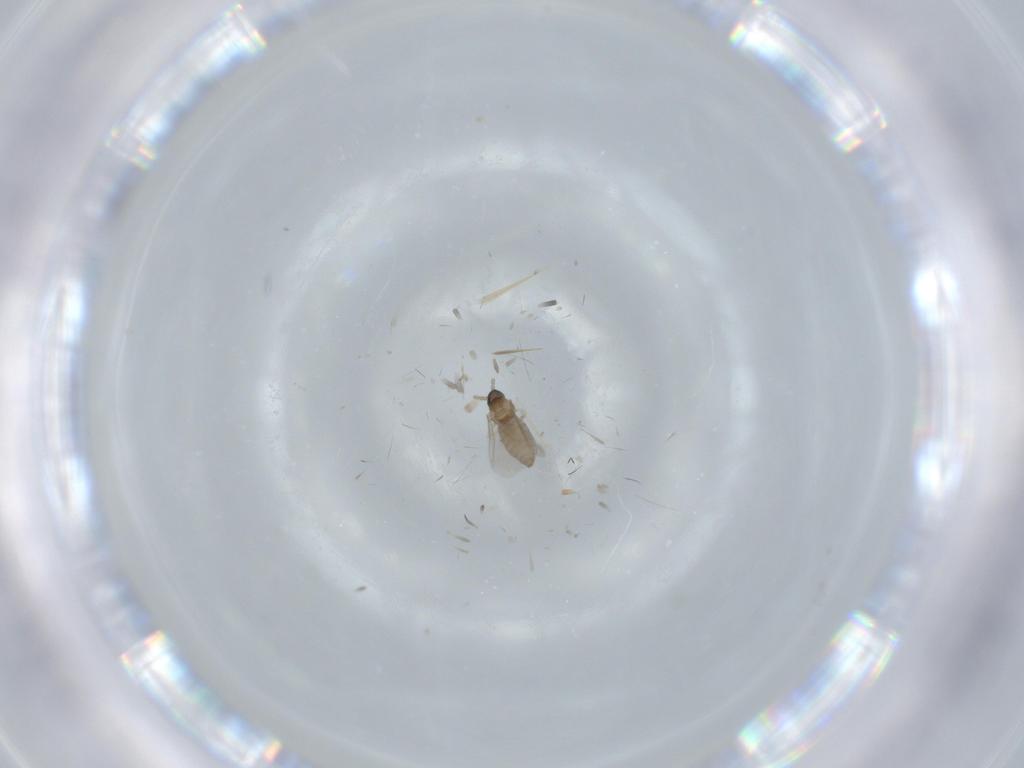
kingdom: Animalia
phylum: Arthropoda
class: Insecta
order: Diptera
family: Cecidomyiidae
